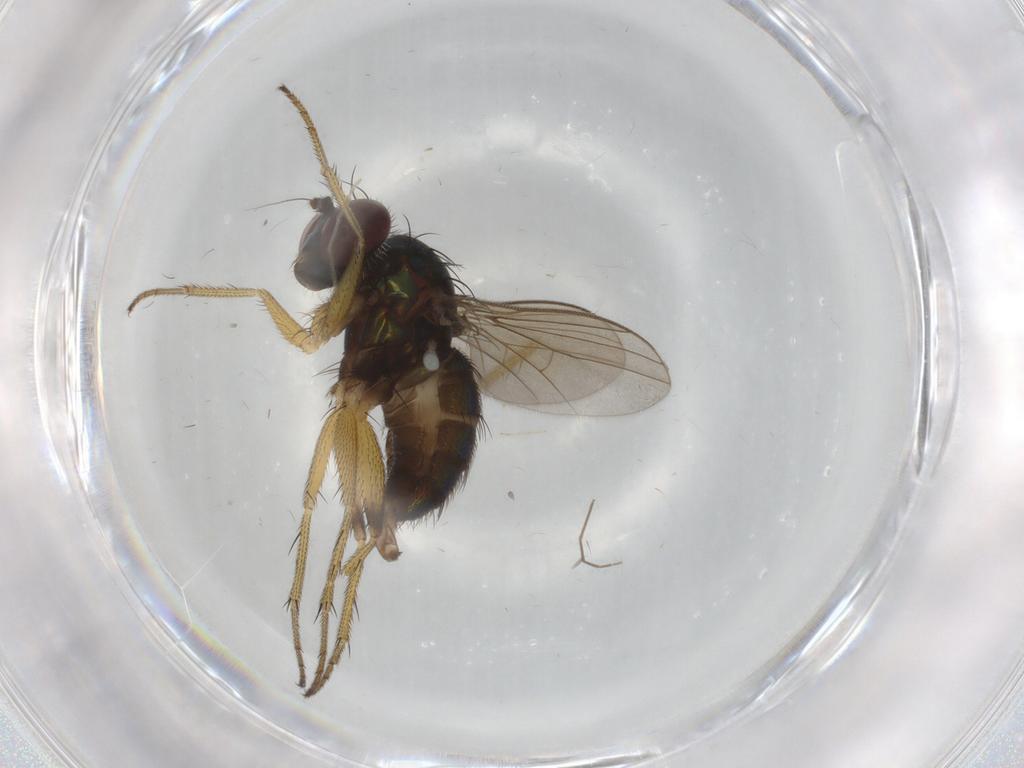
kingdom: Animalia
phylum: Arthropoda
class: Insecta
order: Diptera
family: Dolichopodidae
